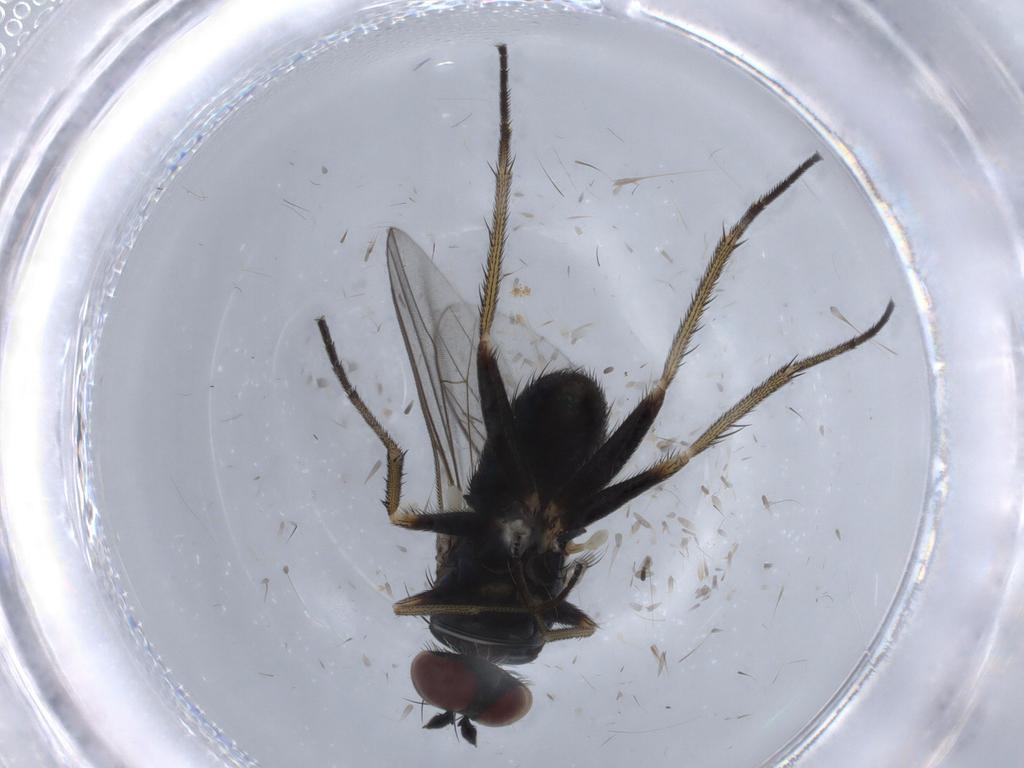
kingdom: Animalia
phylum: Arthropoda
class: Insecta
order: Diptera
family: Dolichopodidae
